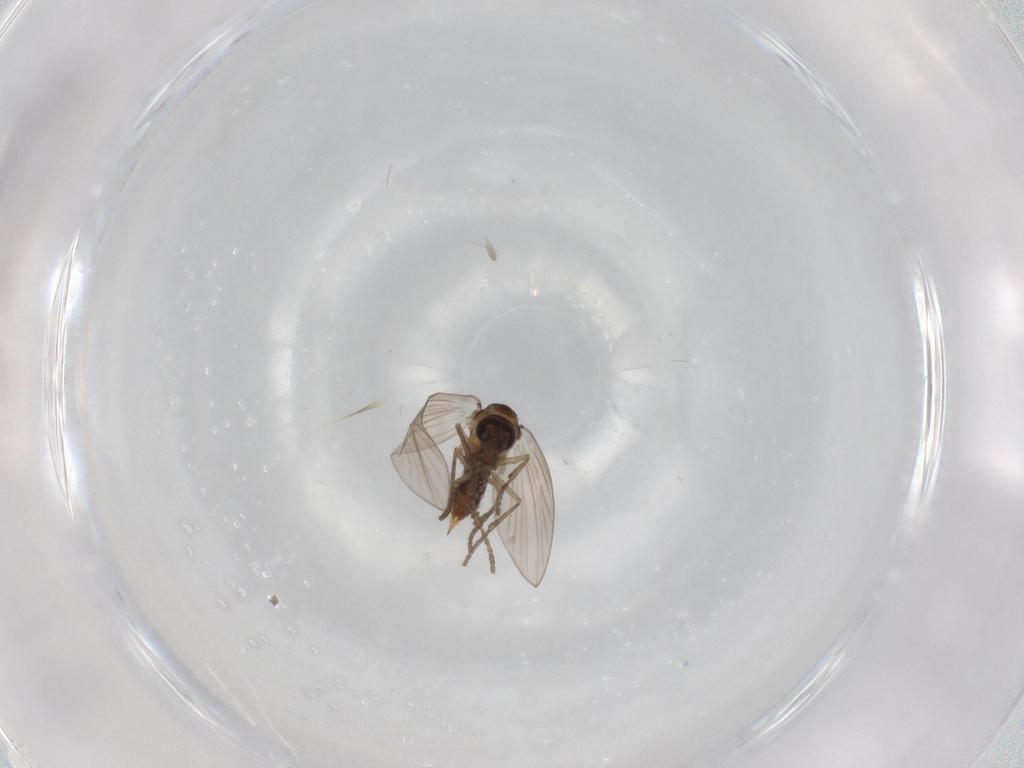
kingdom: Animalia
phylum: Arthropoda
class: Insecta
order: Diptera
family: Psychodidae
